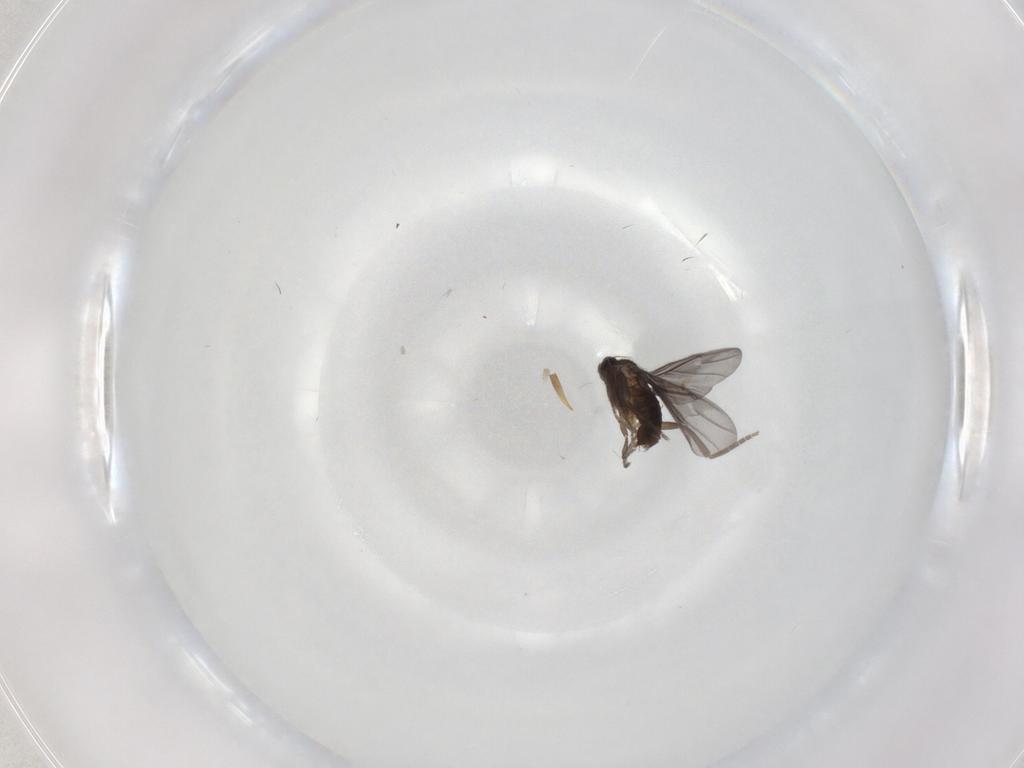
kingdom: Animalia
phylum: Arthropoda
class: Insecta
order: Diptera
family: Phoridae
